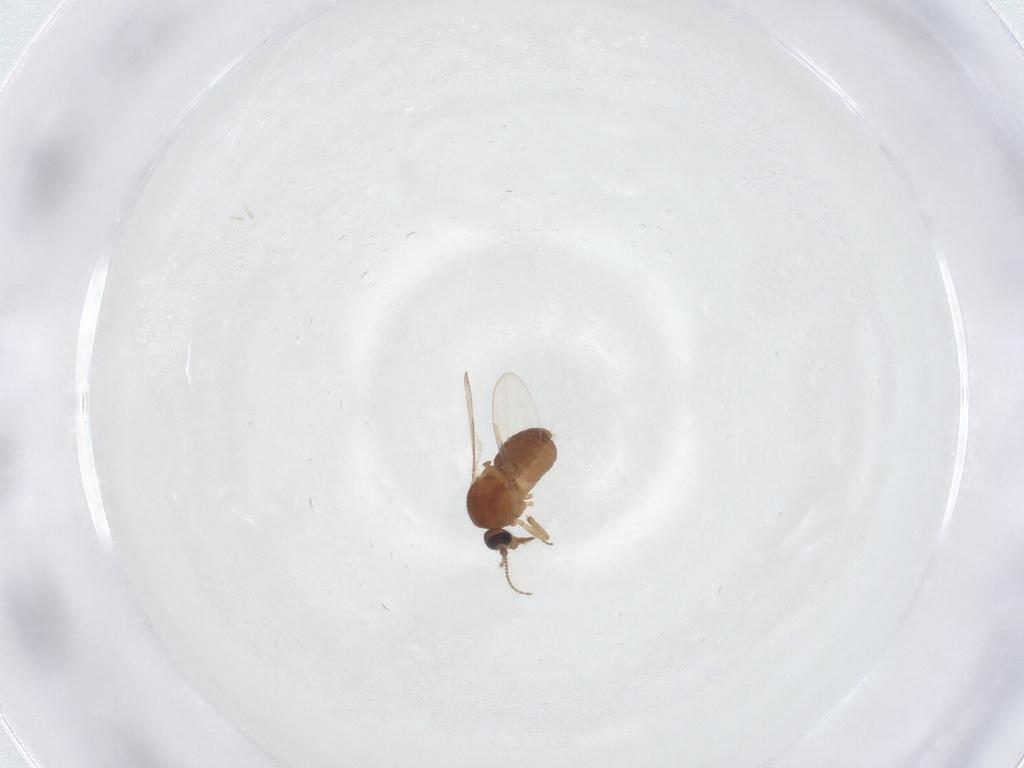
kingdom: Animalia
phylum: Arthropoda
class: Insecta
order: Diptera
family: Ceratopogonidae
